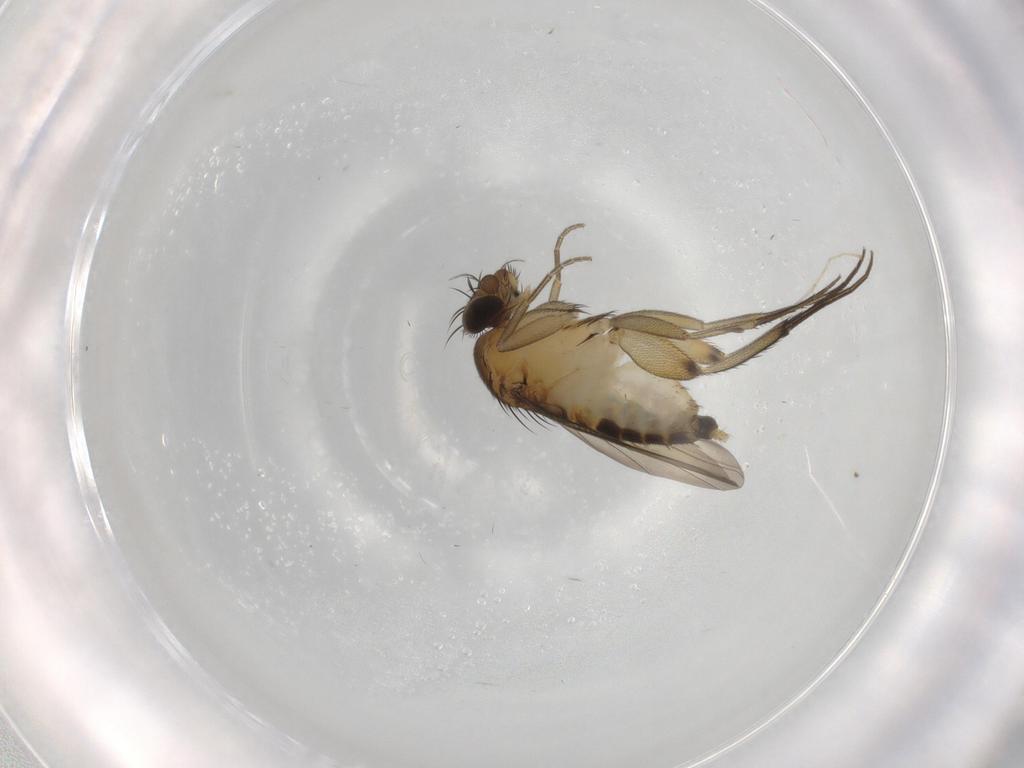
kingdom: Animalia
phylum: Arthropoda
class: Insecta
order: Diptera
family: Phoridae
